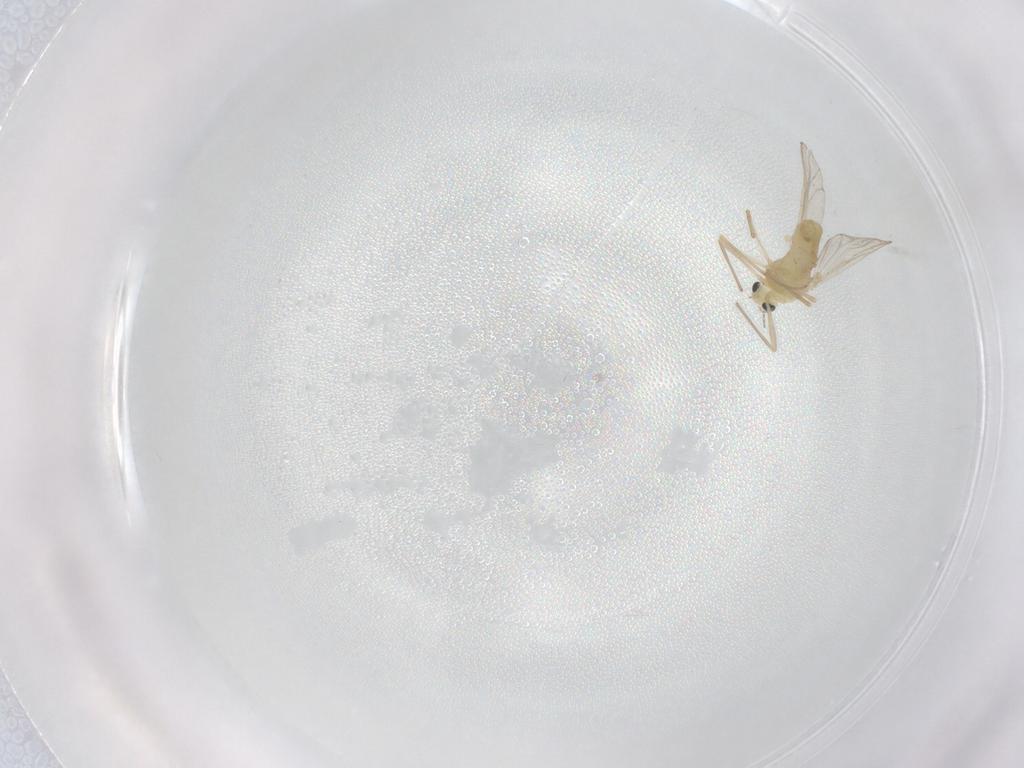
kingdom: Animalia
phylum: Arthropoda
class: Insecta
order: Diptera
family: Chironomidae
